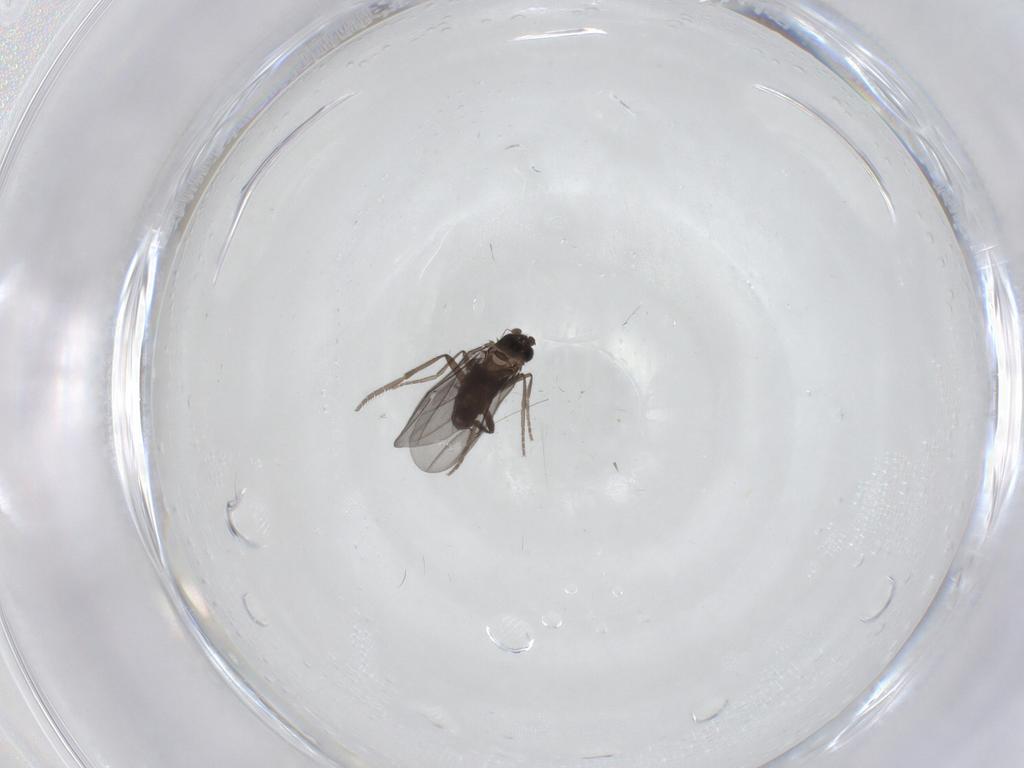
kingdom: Animalia
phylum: Arthropoda
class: Insecta
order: Diptera
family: Phoridae
